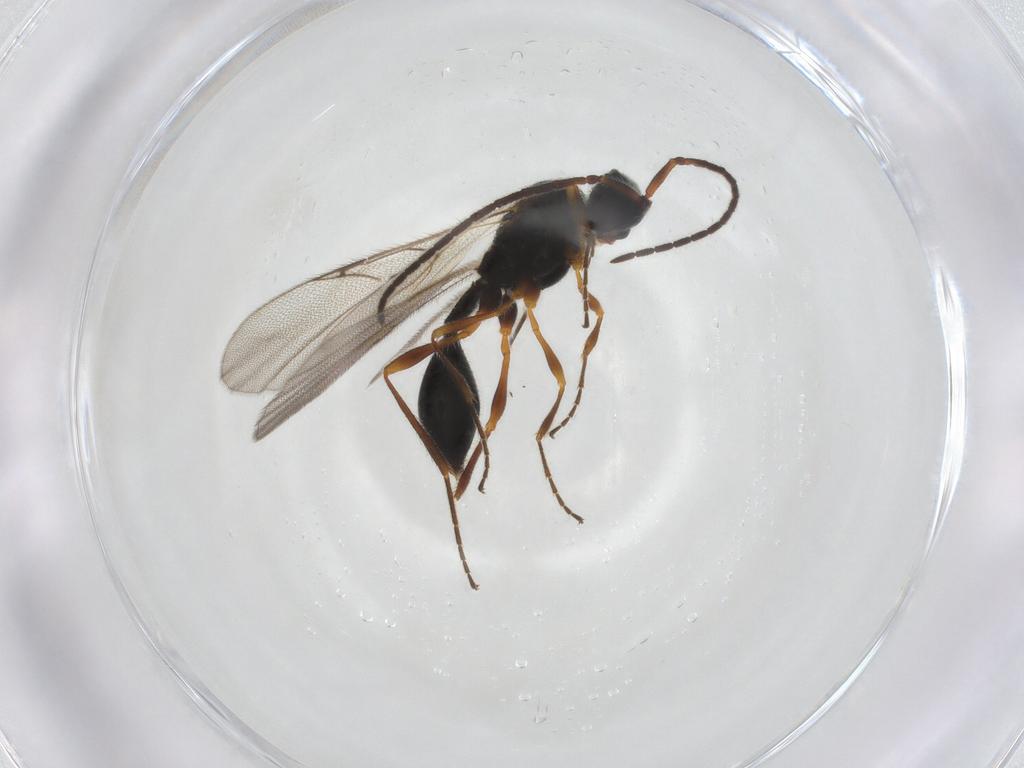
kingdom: Animalia
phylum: Arthropoda
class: Insecta
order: Hymenoptera
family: Diapriidae
